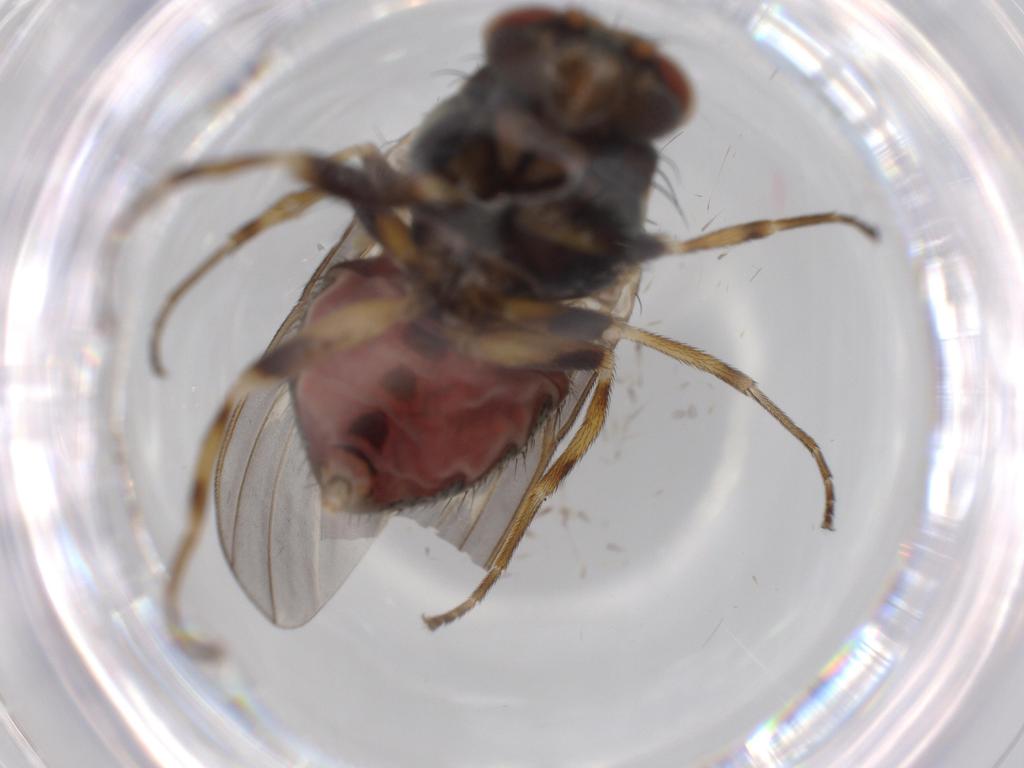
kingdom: Animalia
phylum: Arthropoda
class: Insecta
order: Diptera
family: Odiniidae
